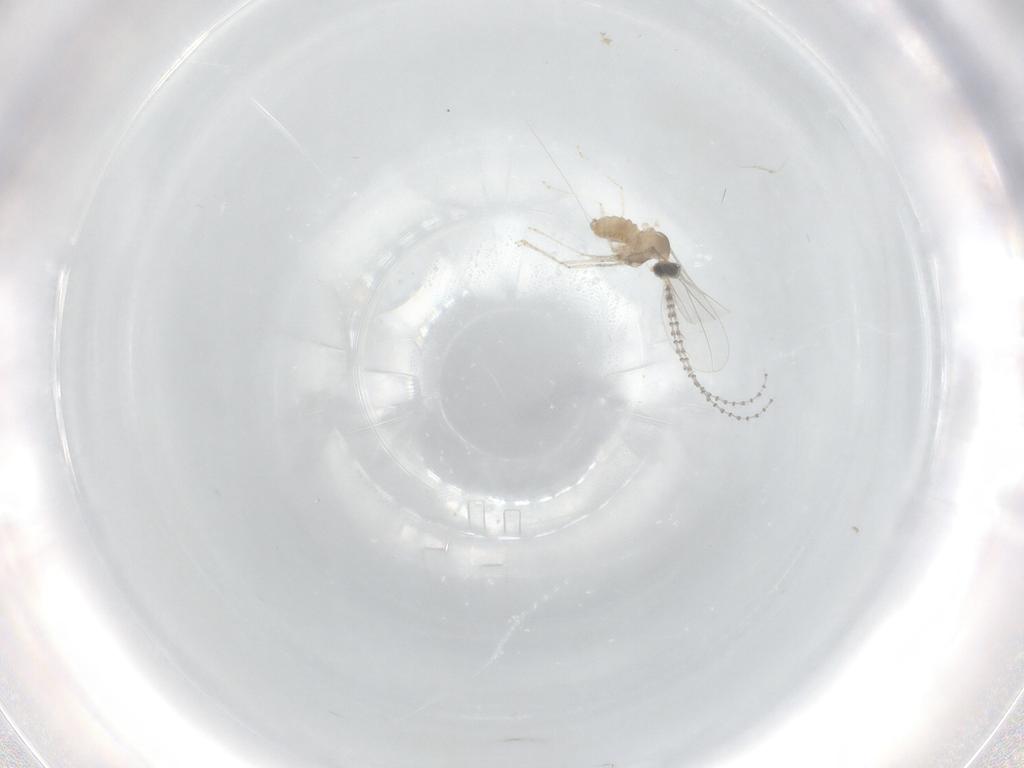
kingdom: Animalia
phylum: Arthropoda
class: Insecta
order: Diptera
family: Cecidomyiidae
